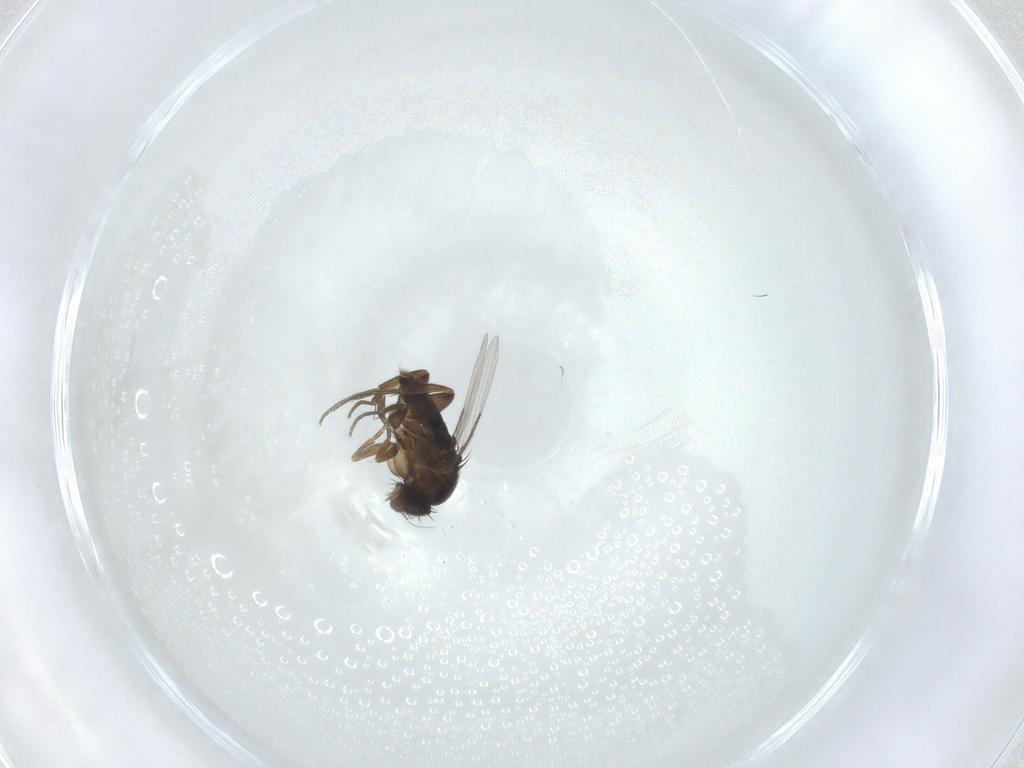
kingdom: Animalia
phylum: Arthropoda
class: Insecta
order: Diptera
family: Phoridae
